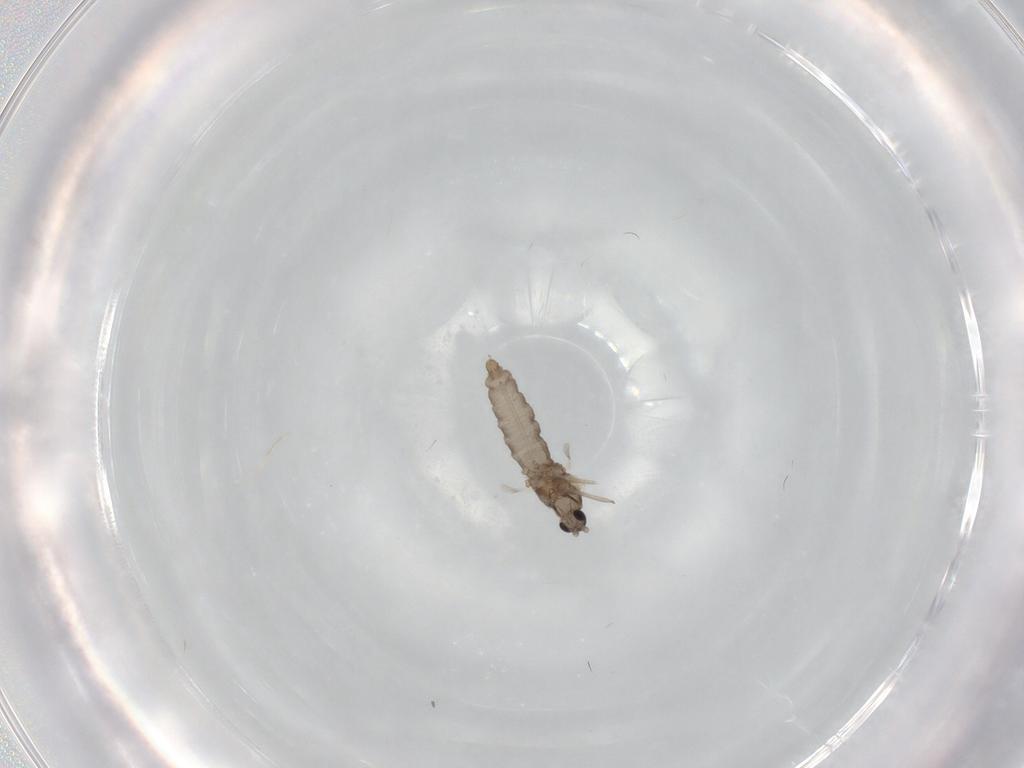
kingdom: Animalia
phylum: Arthropoda
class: Insecta
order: Diptera
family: Cecidomyiidae
